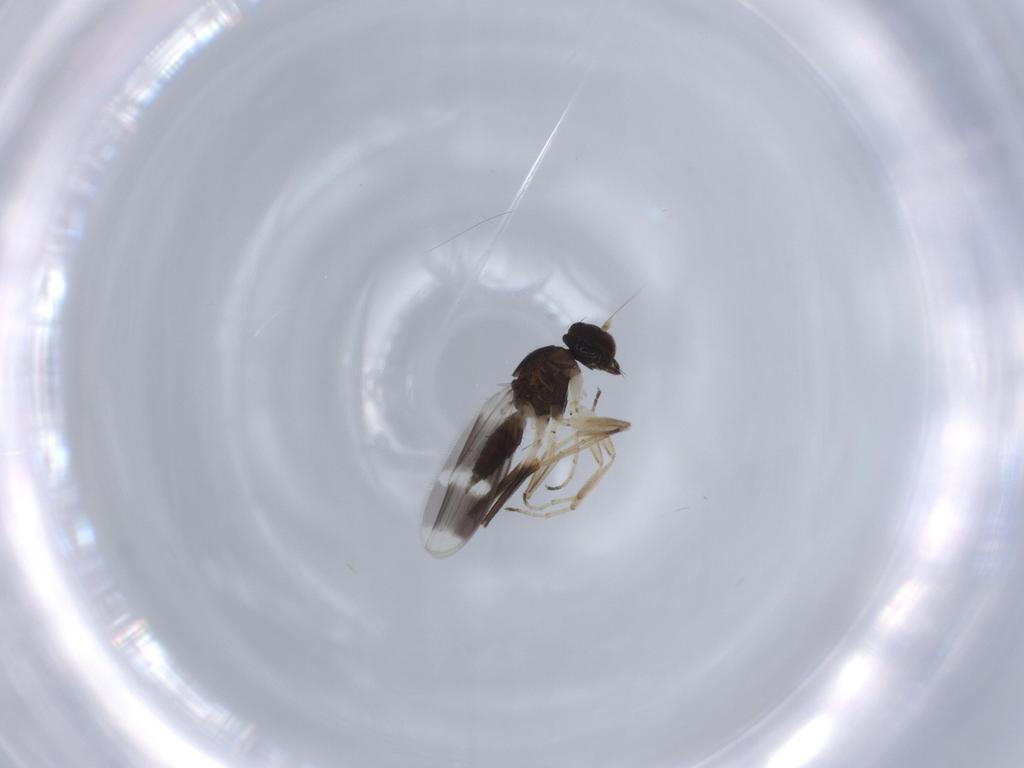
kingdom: Animalia
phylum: Arthropoda
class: Insecta
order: Diptera
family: Hybotidae
